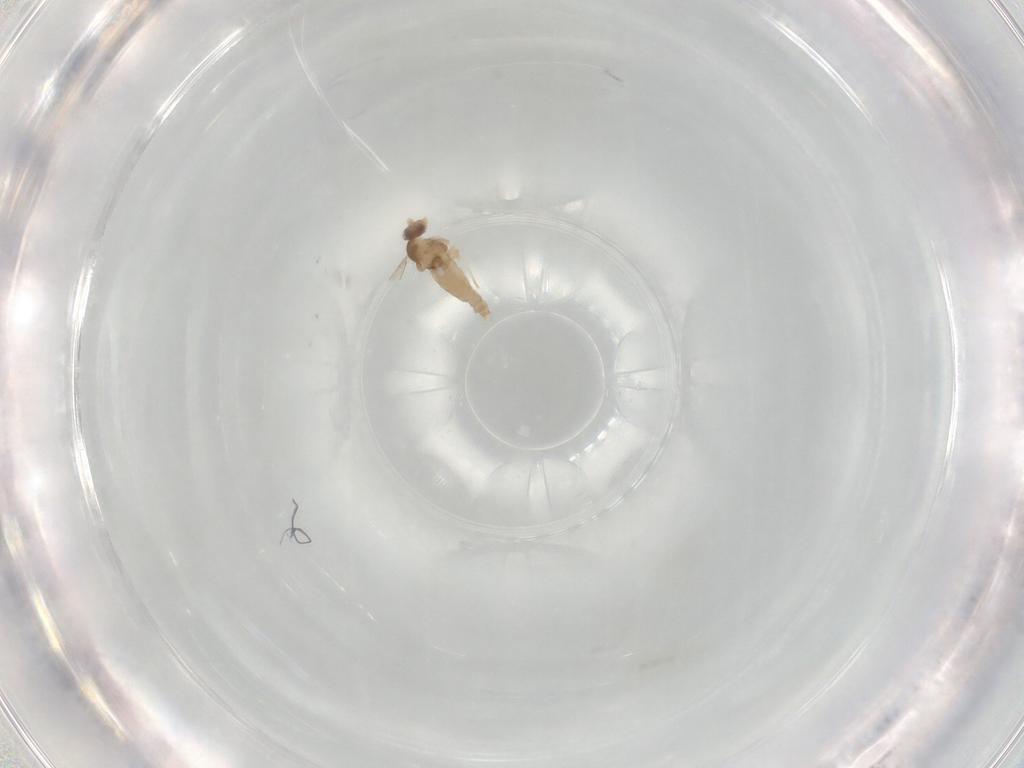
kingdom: Animalia
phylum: Arthropoda
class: Insecta
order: Diptera
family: Cecidomyiidae
